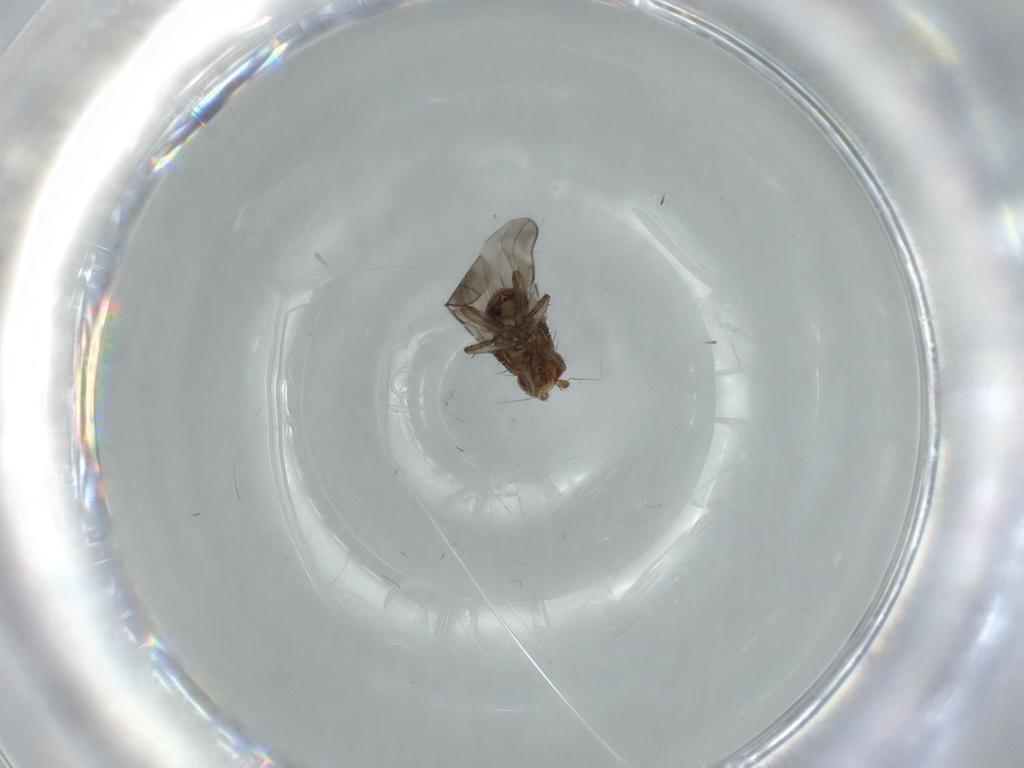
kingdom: Animalia
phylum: Arthropoda
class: Insecta
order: Diptera
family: Sphaeroceridae
